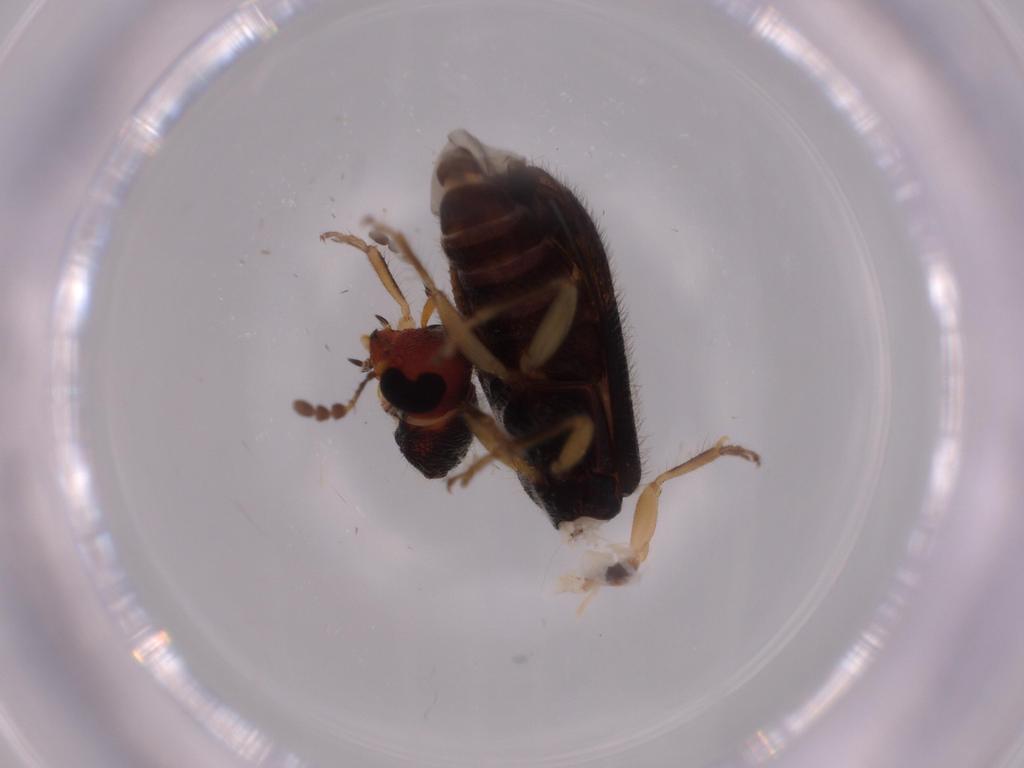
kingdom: Animalia
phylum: Arthropoda
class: Insecta
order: Coleoptera
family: Cleridae
